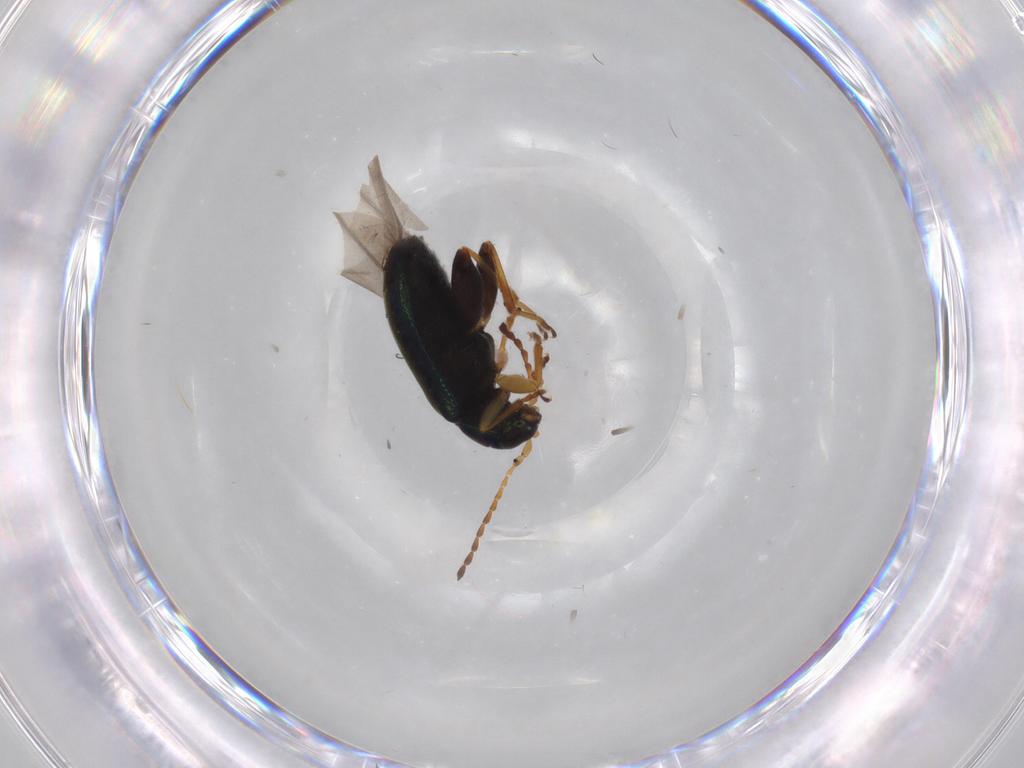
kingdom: Animalia
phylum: Arthropoda
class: Insecta
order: Coleoptera
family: Chrysomelidae
